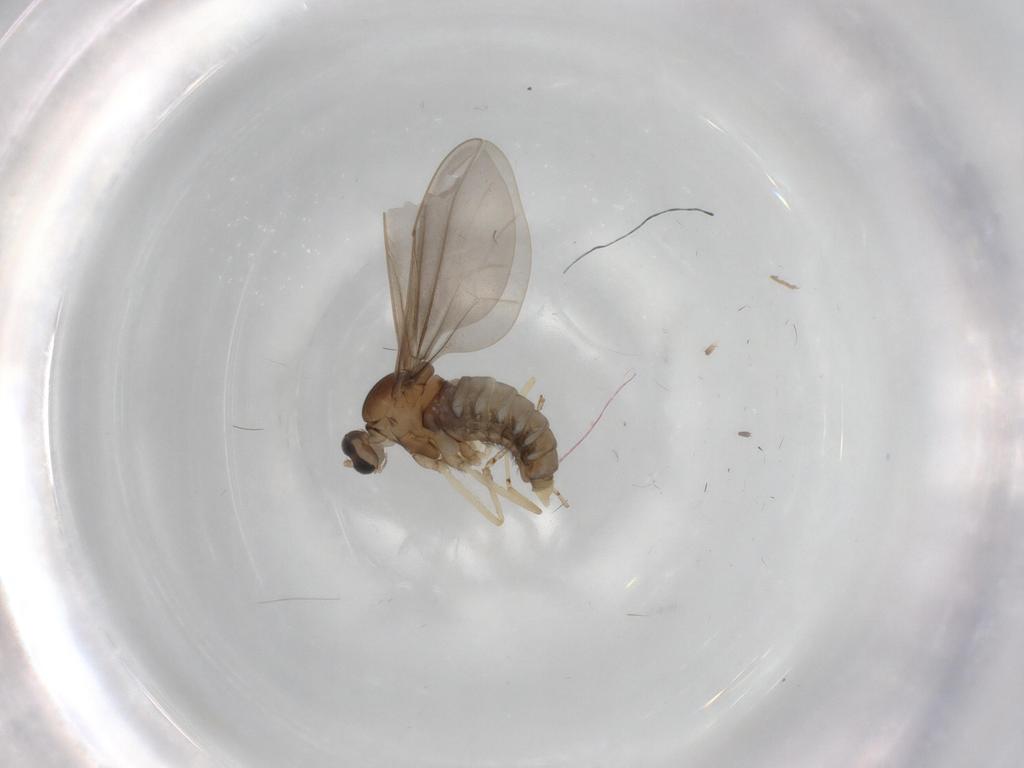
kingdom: Animalia
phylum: Arthropoda
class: Insecta
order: Diptera
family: Cecidomyiidae
